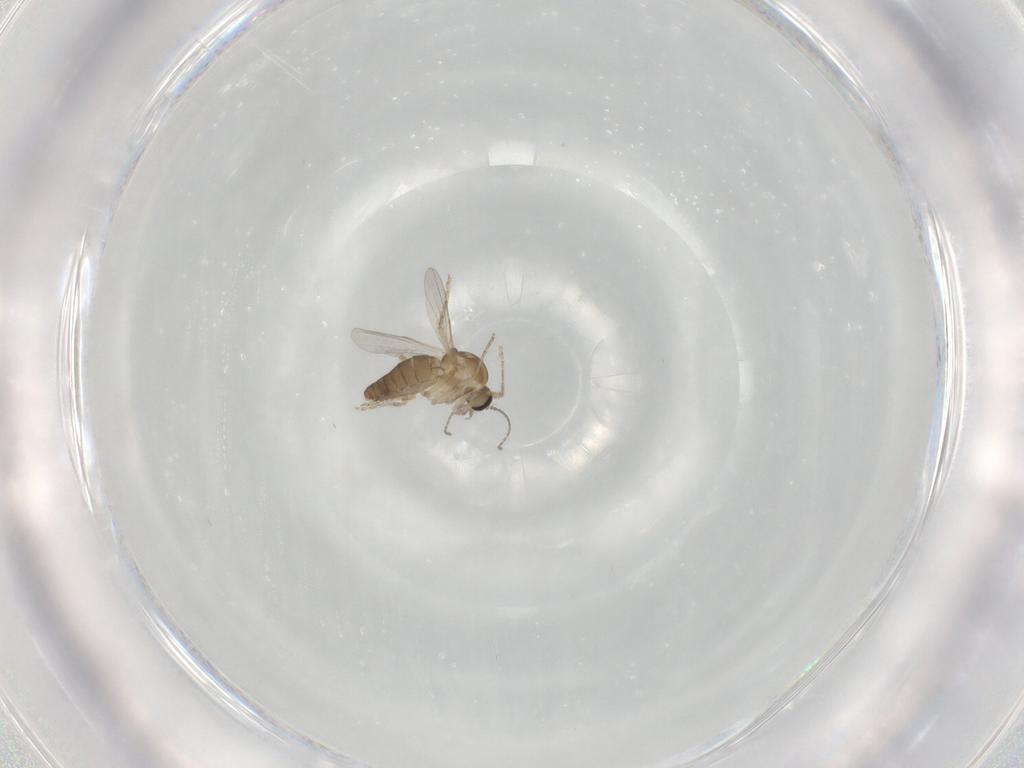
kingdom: Animalia
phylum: Arthropoda
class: Insecta
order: Diptera
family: Ceratopogonidae
